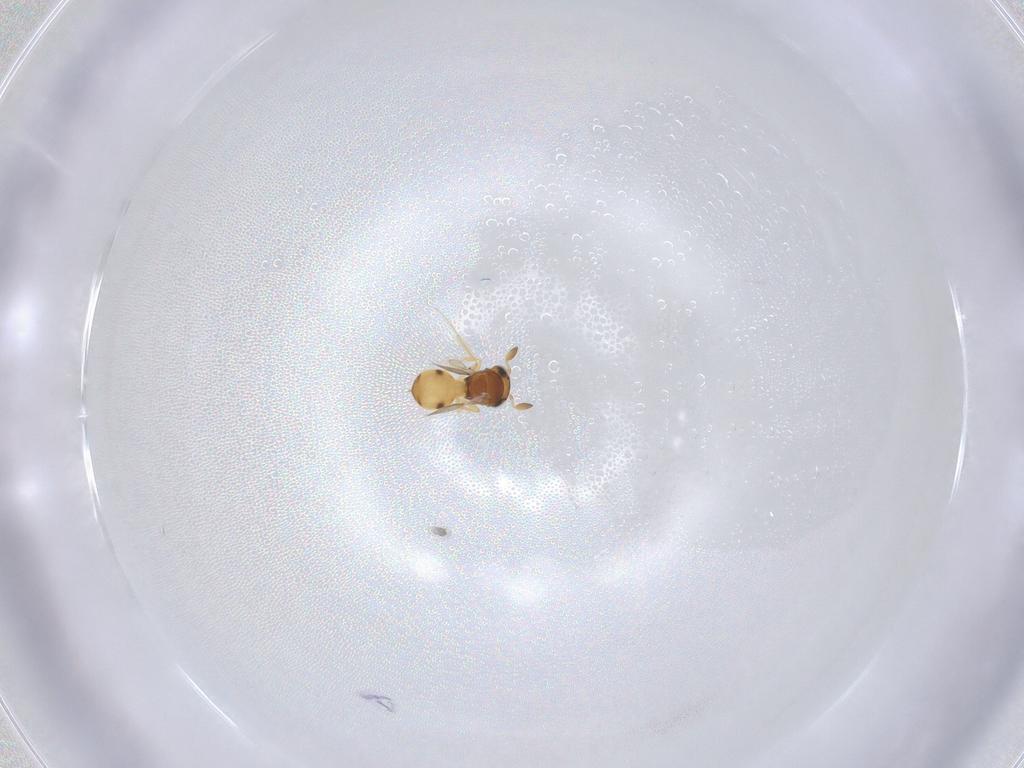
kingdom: Animalia
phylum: Arthropoda
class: Insecta
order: Hymenoptera
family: Scelionidae
